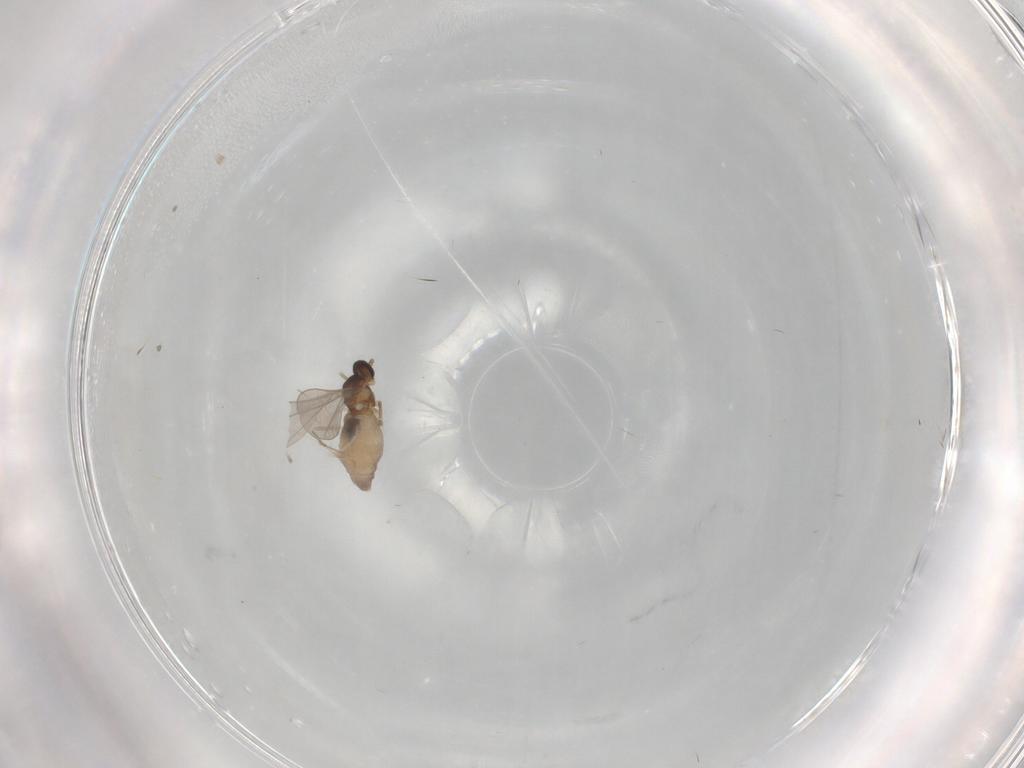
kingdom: Animalia
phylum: Arthropoda
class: Insecta
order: Diptera
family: Cecidomyiidae
